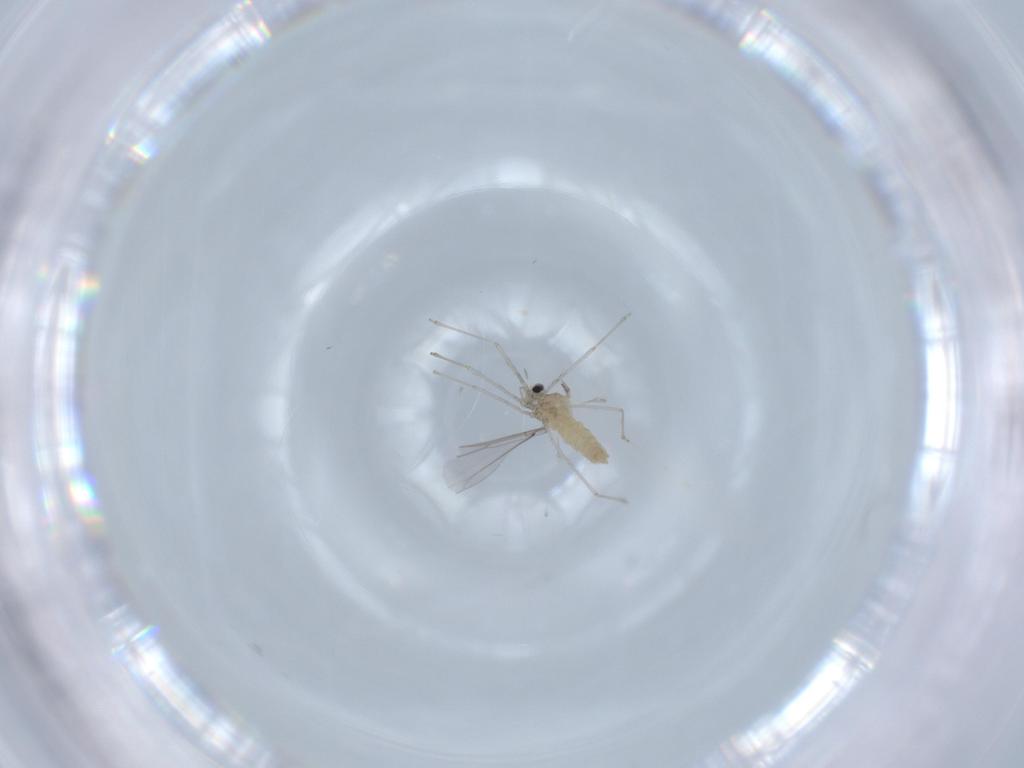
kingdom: Animalia
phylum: Arthropoda
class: Insecta
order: Diptera
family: Cecidomyiidae
